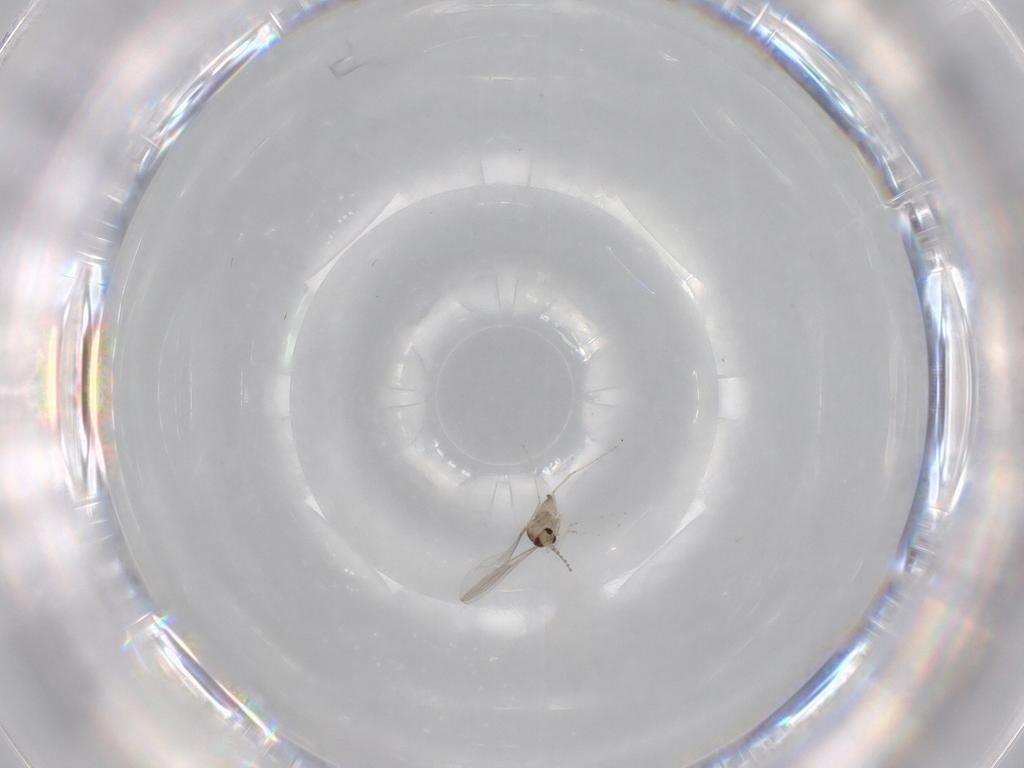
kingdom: Animalia
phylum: Arthropoda
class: Insecta
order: Diptera
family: Cecidomyiidae
